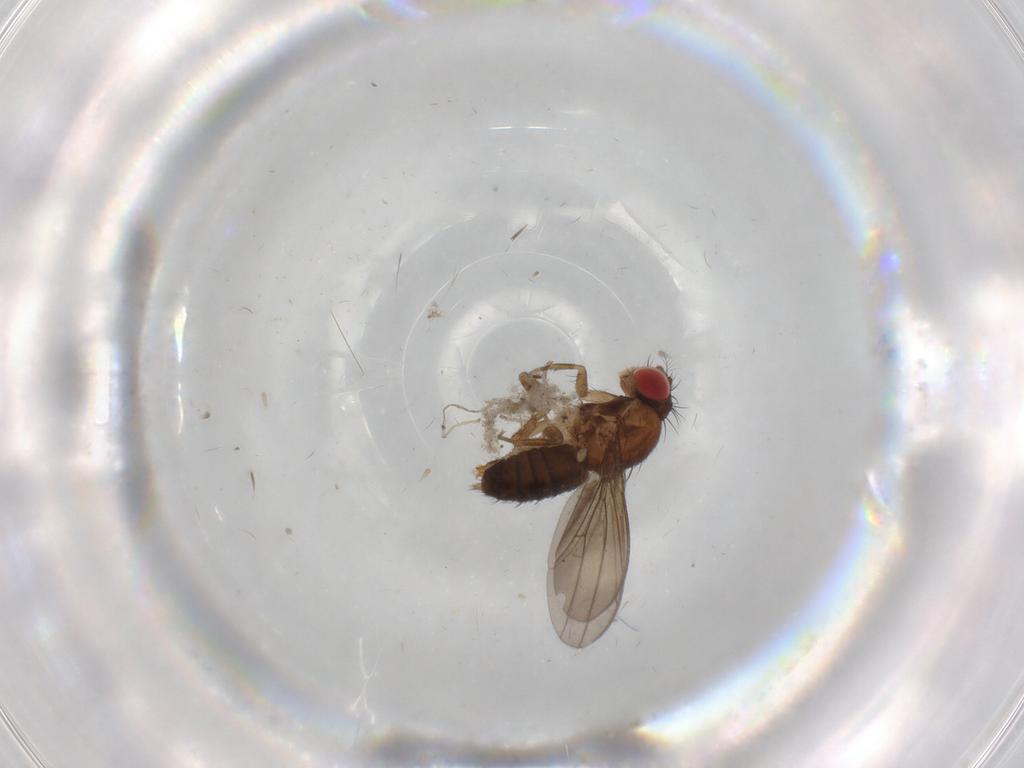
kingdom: Animalia
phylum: Arthropoda
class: Insecta
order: Diptera
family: Drosophilidae
